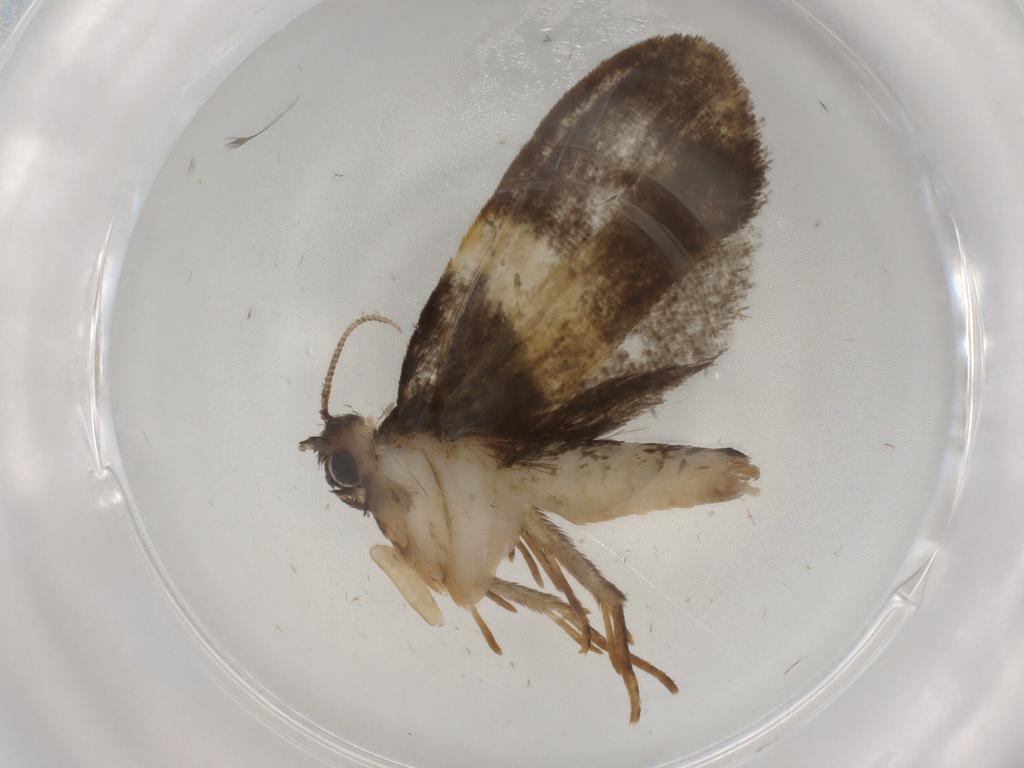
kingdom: Animalia
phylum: Arthropoda
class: Insecta
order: Lepidoptera
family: Psychidae
